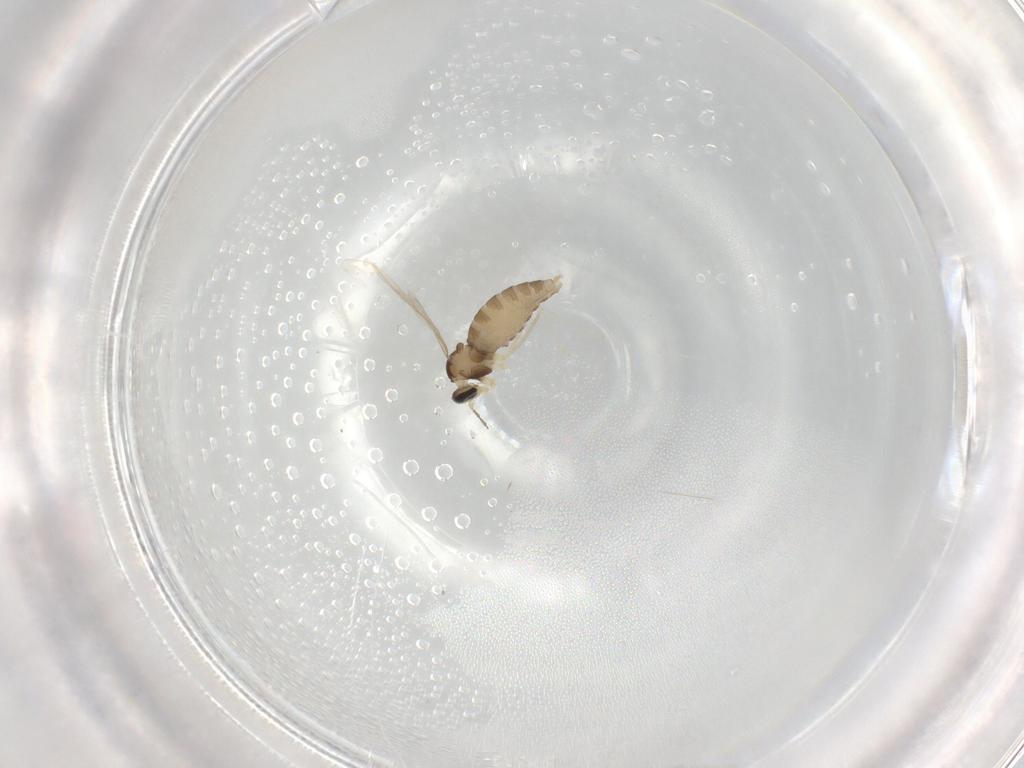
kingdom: Animalia
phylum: Arthropoda
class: Insecta
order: Diptera
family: Cecidomyiidae
